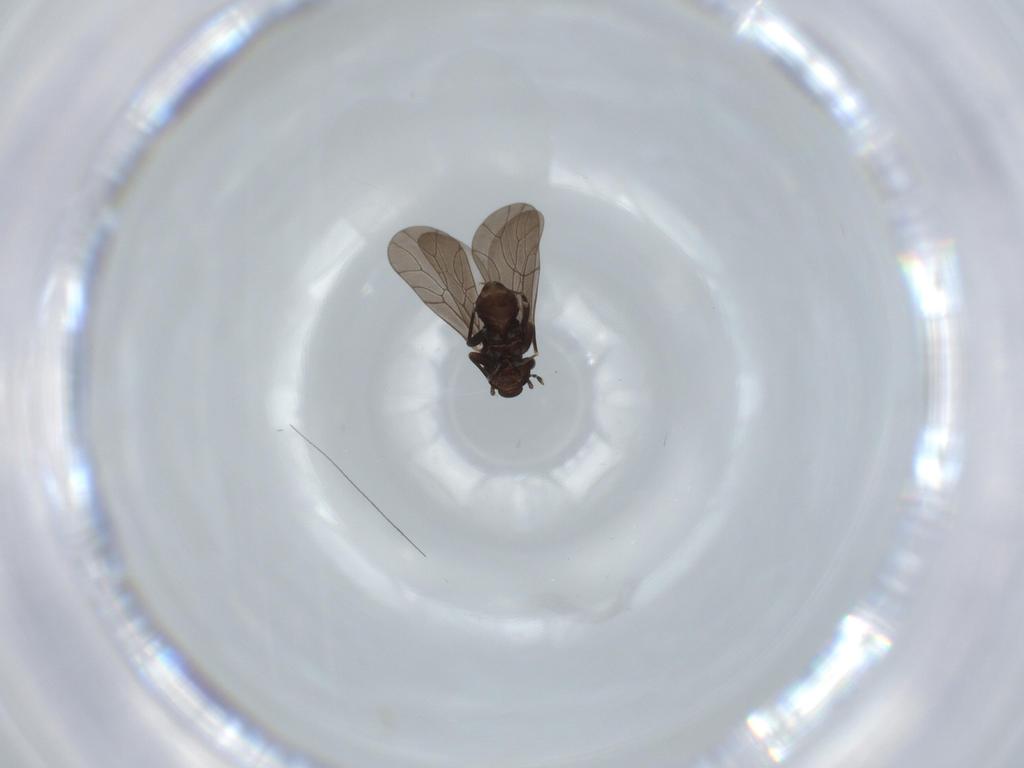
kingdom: Animalia
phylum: Arthropoda
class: Insecta
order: Psocodea
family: Lepidopsocidae
